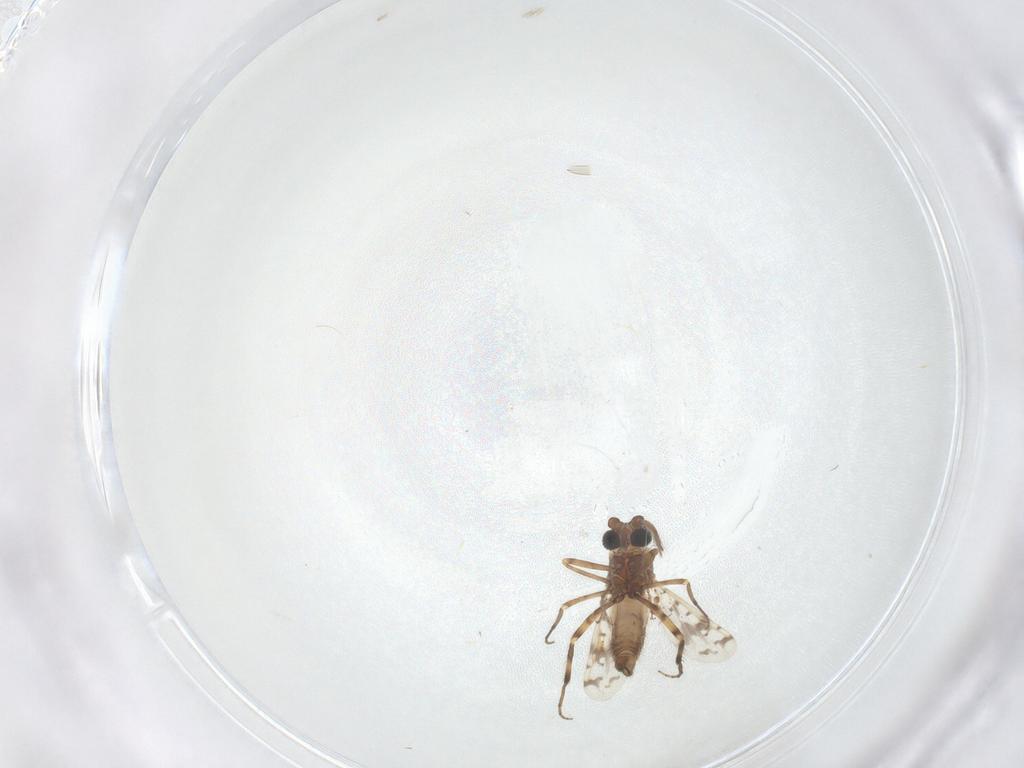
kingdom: Animalia
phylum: Arthropoda
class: Insecta
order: Diptera
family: Ceratopogonidae
